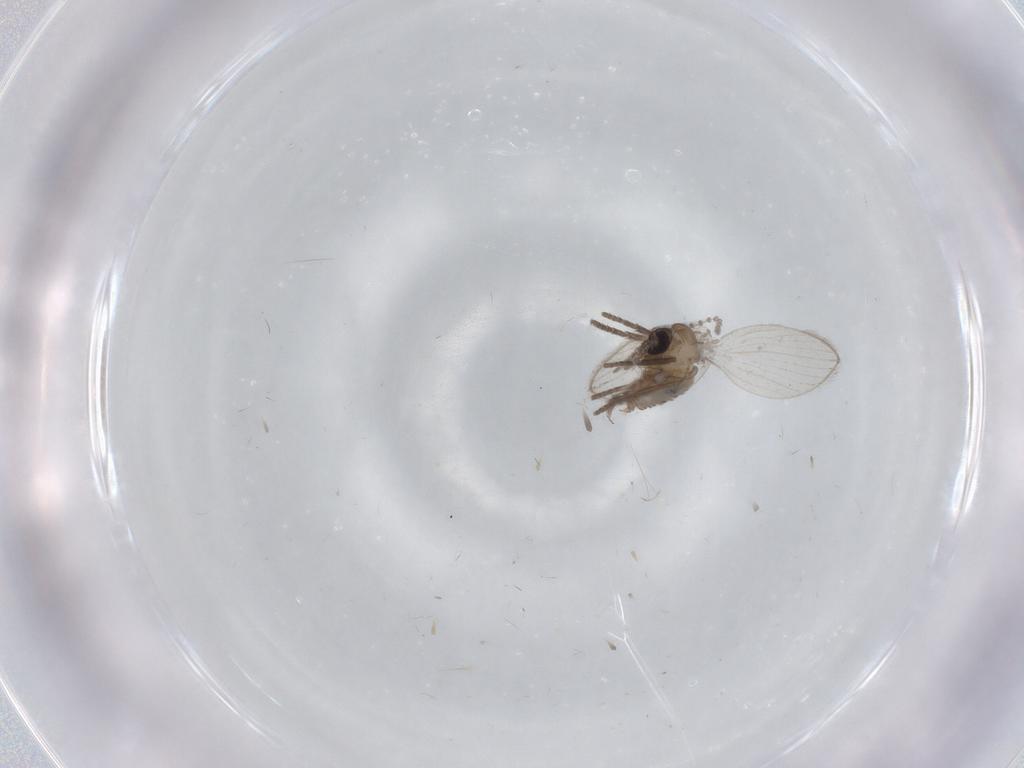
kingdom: Animalia
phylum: Arthropoda
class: Insecta
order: Diptera
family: Psychodidae
